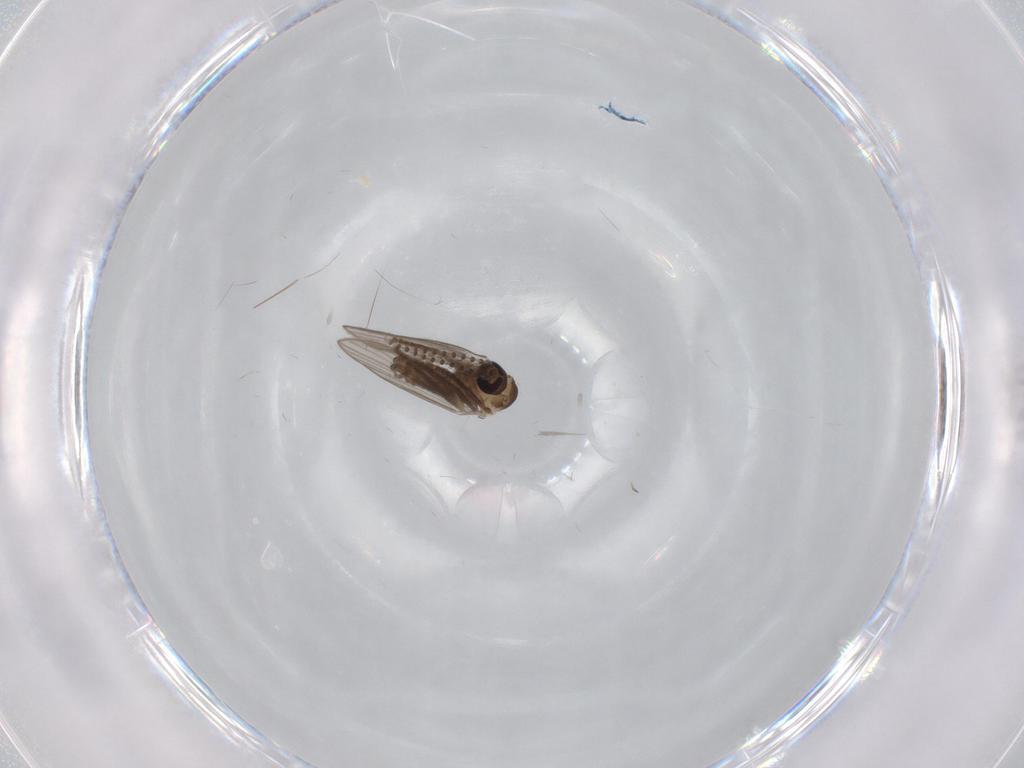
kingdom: Animalia
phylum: Arthropoda
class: Insecta
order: Diptera
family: Psychodidae
